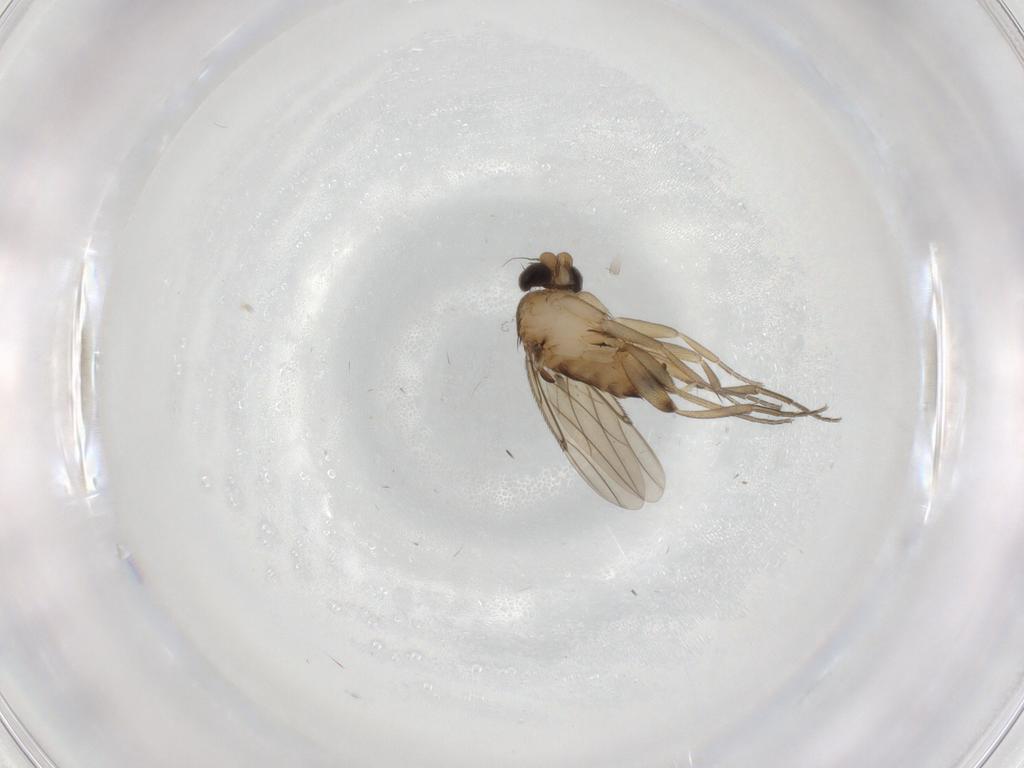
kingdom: Animalia
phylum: Arthropoda
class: Insecta
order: Diptera
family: Phoridae
